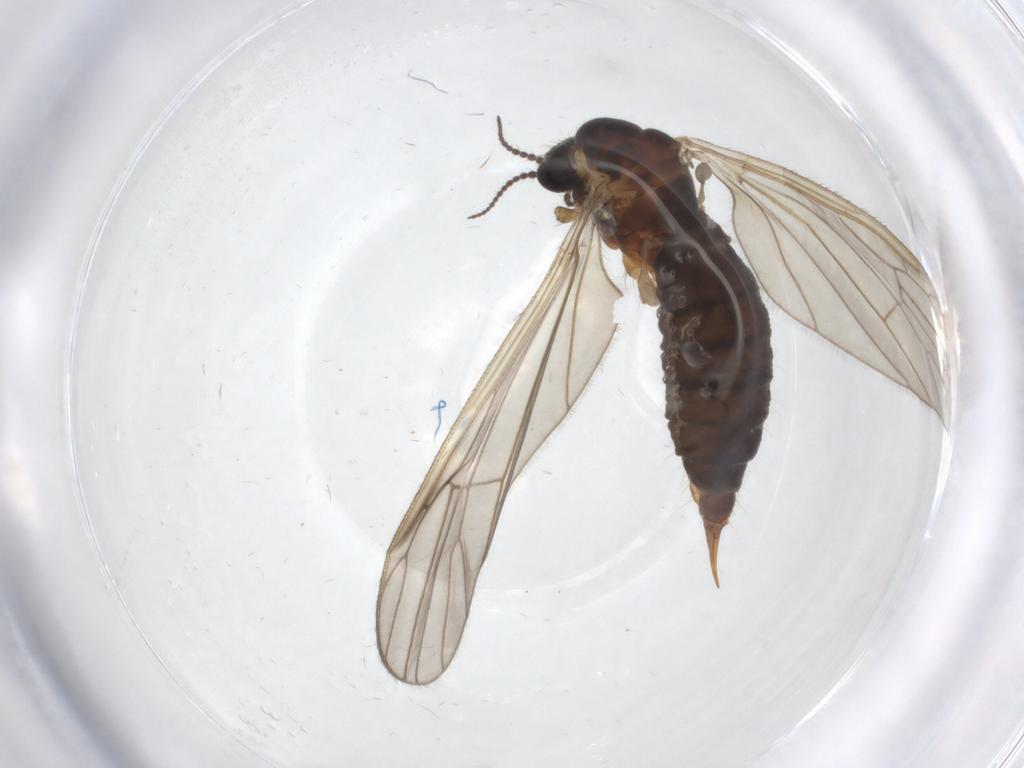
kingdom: Animalia
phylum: Arthropoda
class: Insecta
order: Diptera
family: Agromyzidae
